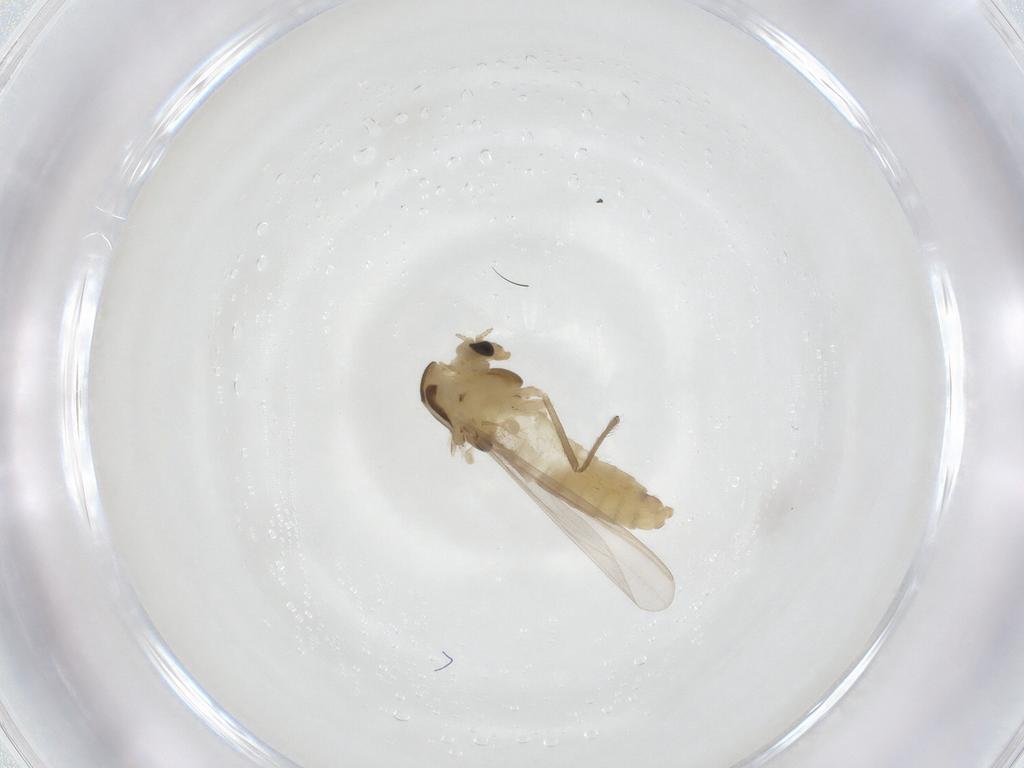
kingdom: Animalia
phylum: Arthropoda
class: Insecta
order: Diptera
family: Chironomidae
